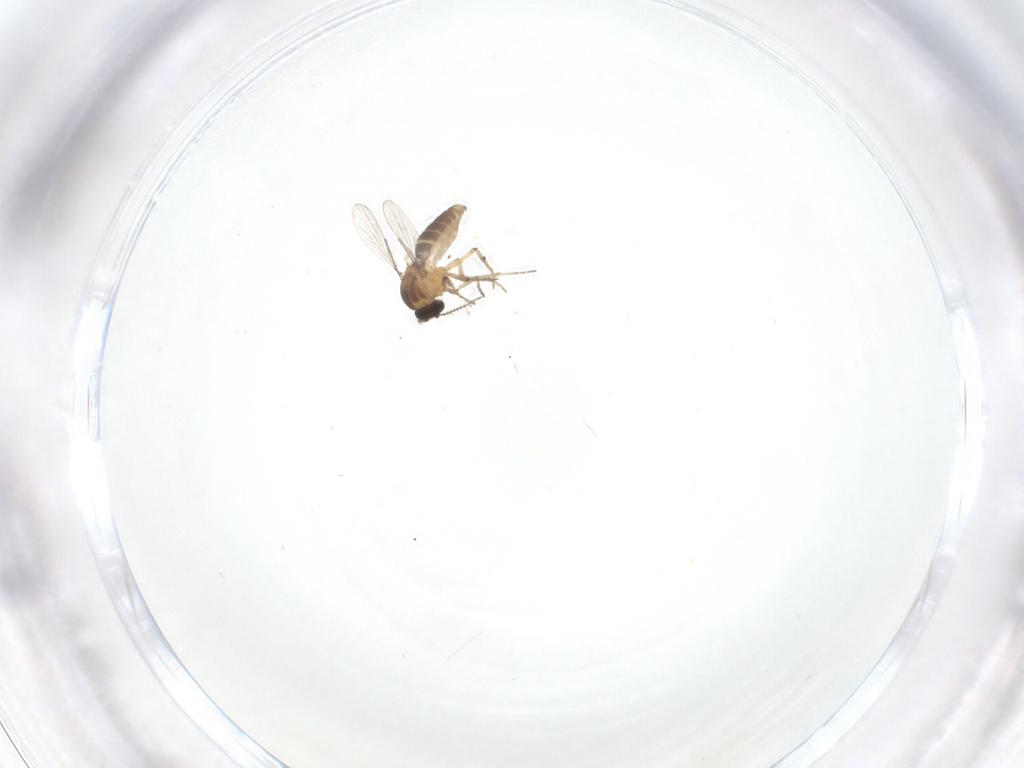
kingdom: Animalia
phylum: Arthropoda
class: Insecta
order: Diptera
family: Ceratopogonidae
